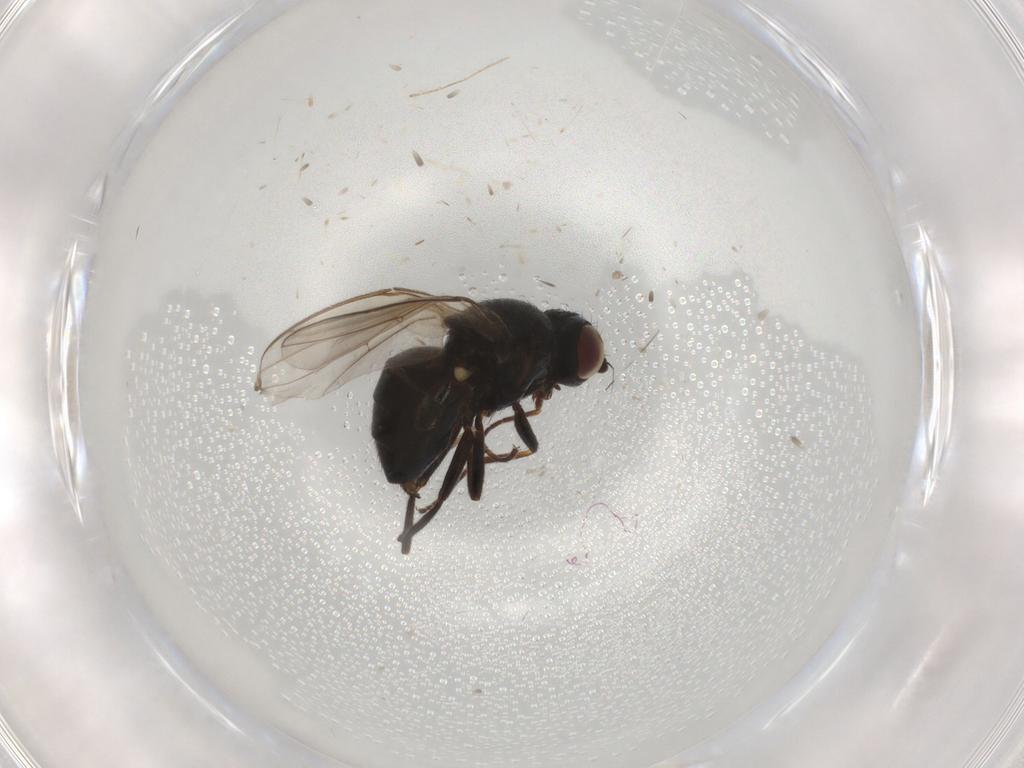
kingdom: Animalia
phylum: Arthropoda
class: Insecta
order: Diptera
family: Chloropidae
